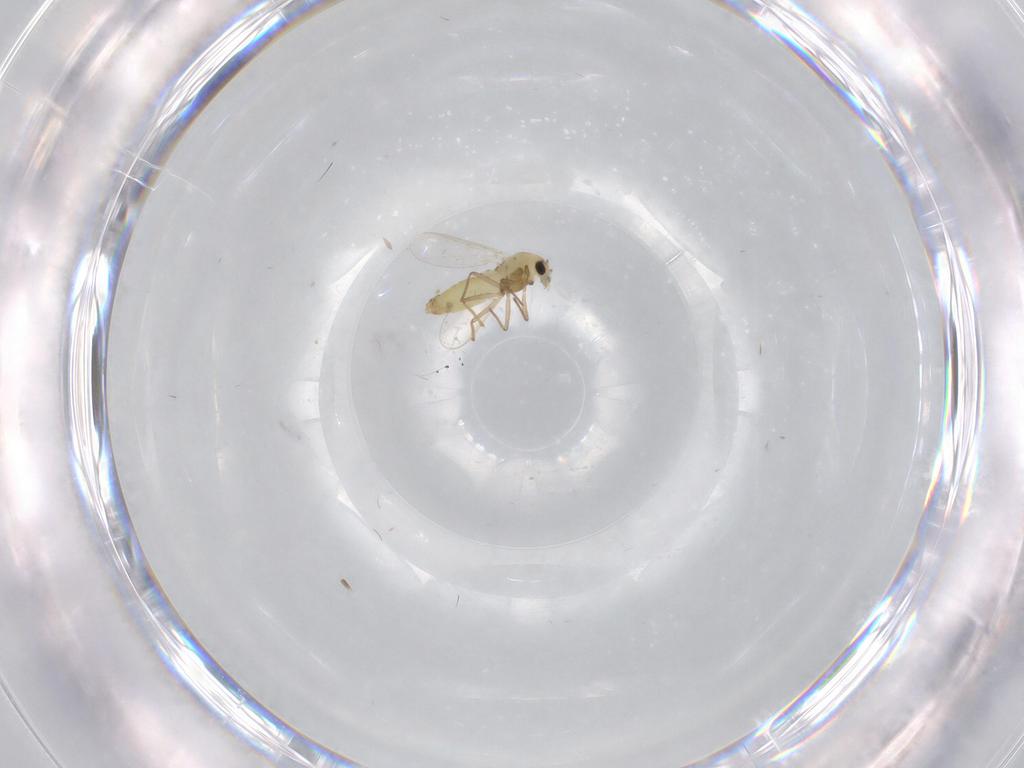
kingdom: Animalia
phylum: Arthropoda
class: Insecta
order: Diptera
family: Chironomidae
